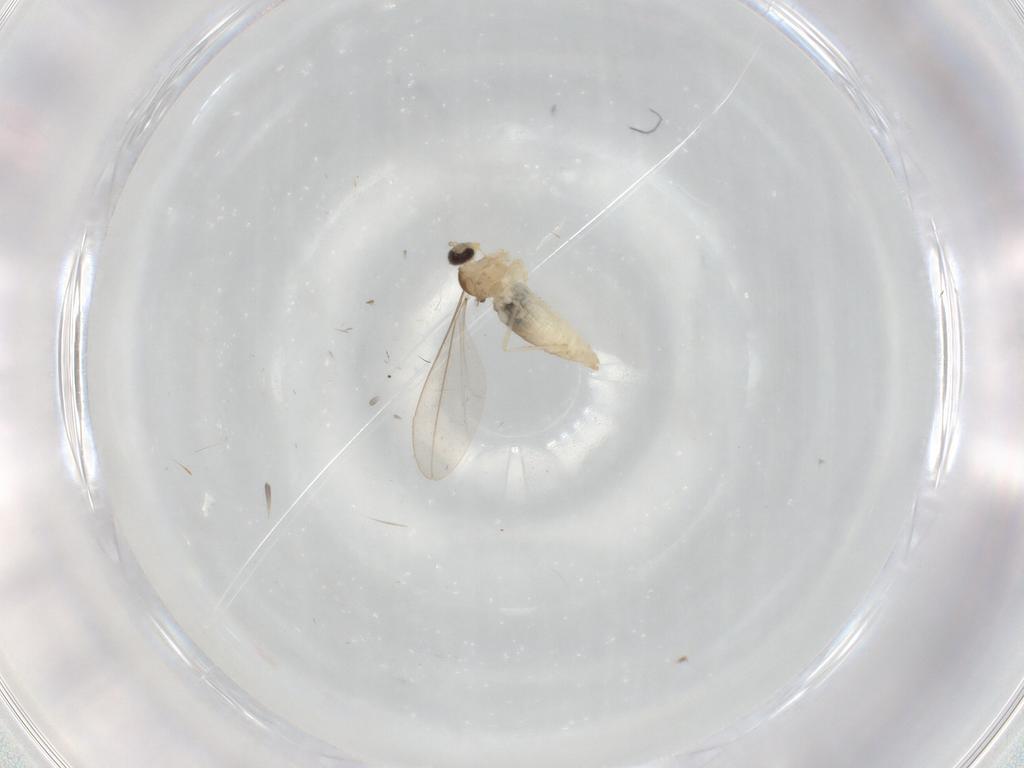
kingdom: Animalia
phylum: Arthropoda
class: Insecta
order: Diptera
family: Cecidomyiidae
